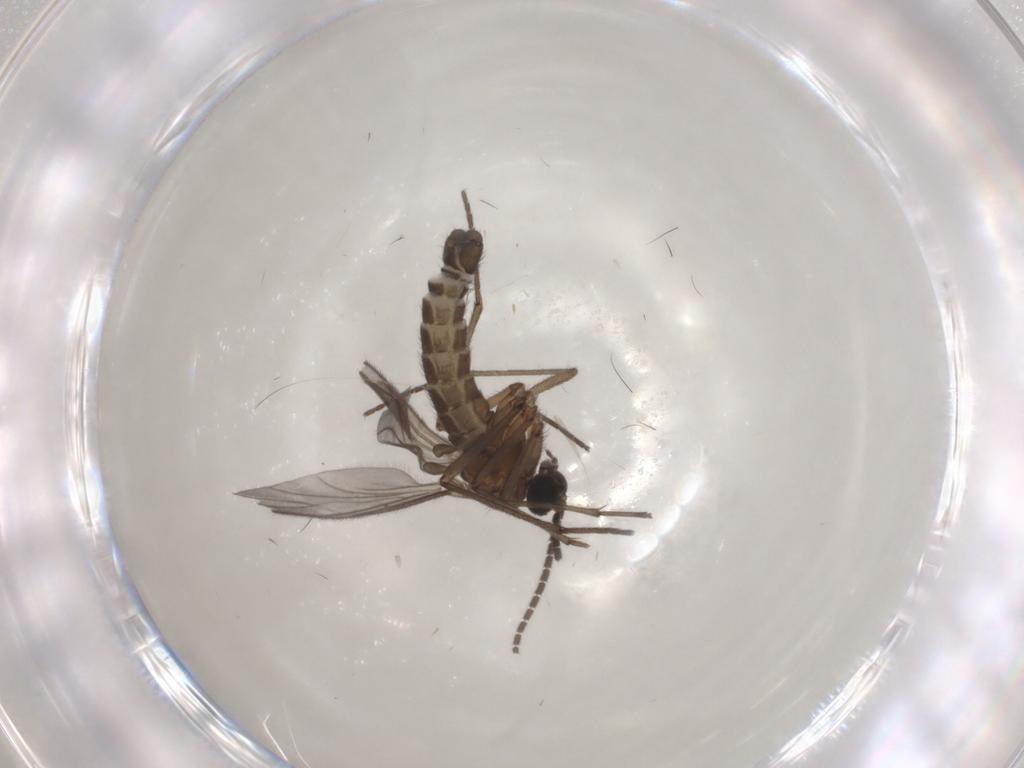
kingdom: Animalia
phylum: Arthropoda
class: Insecta
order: Diptera
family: Sciaridae
